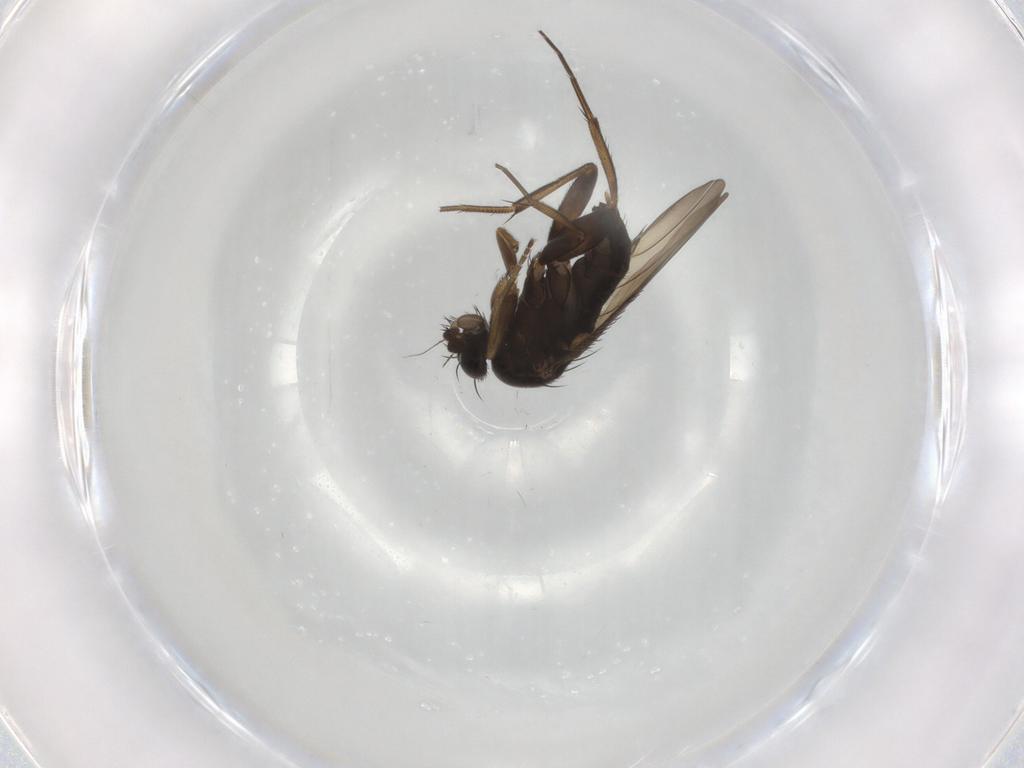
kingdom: Animalia
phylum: Arthropoda
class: Insecta
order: Diptera
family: Phoridae
